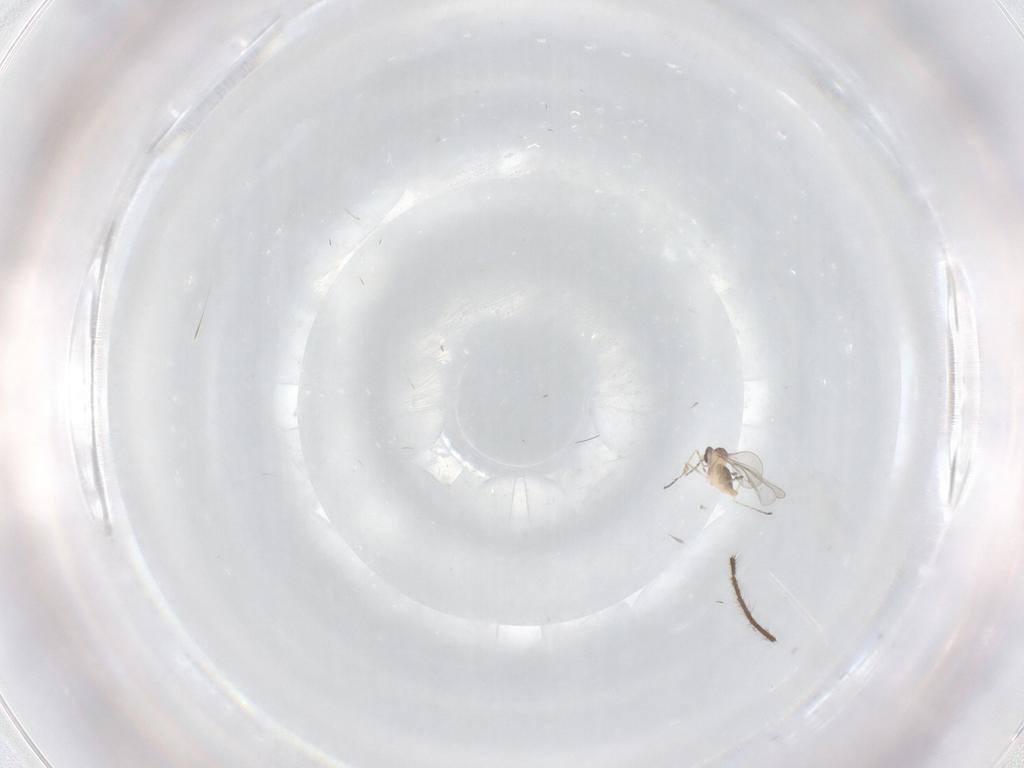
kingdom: Animalia
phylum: Arthropoda
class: Insecta
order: Diptera
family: Cecidomyiidae
